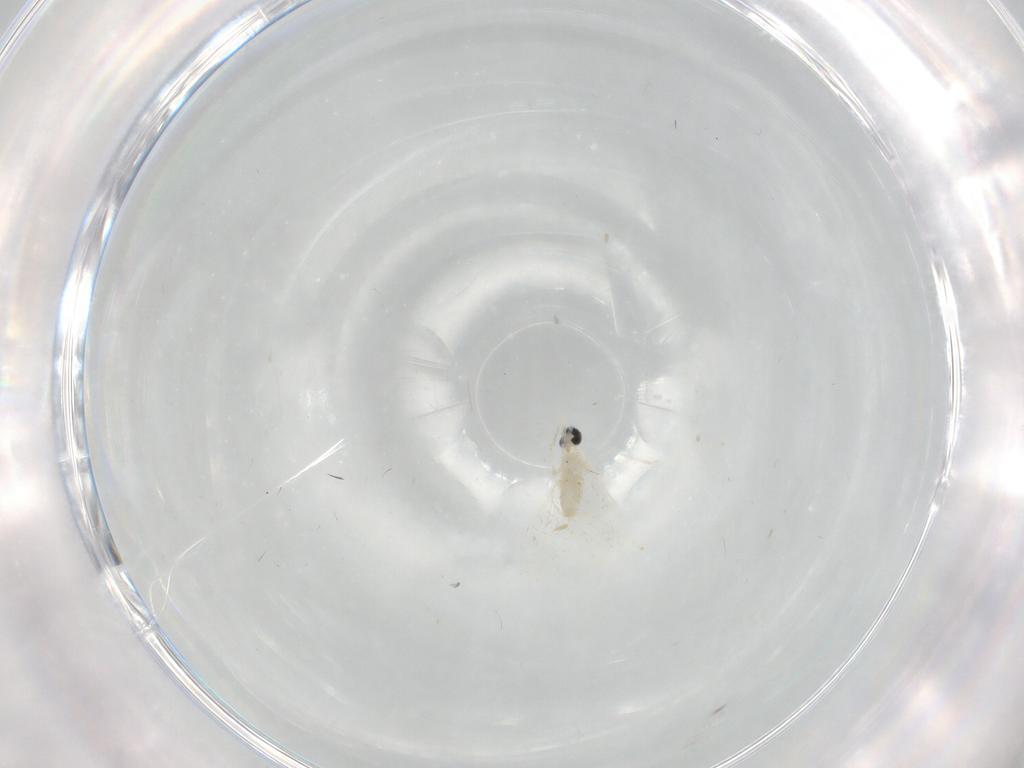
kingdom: Animalia
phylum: Arthropoda
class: Insecta
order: Diptera
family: Cecidomyiidae
